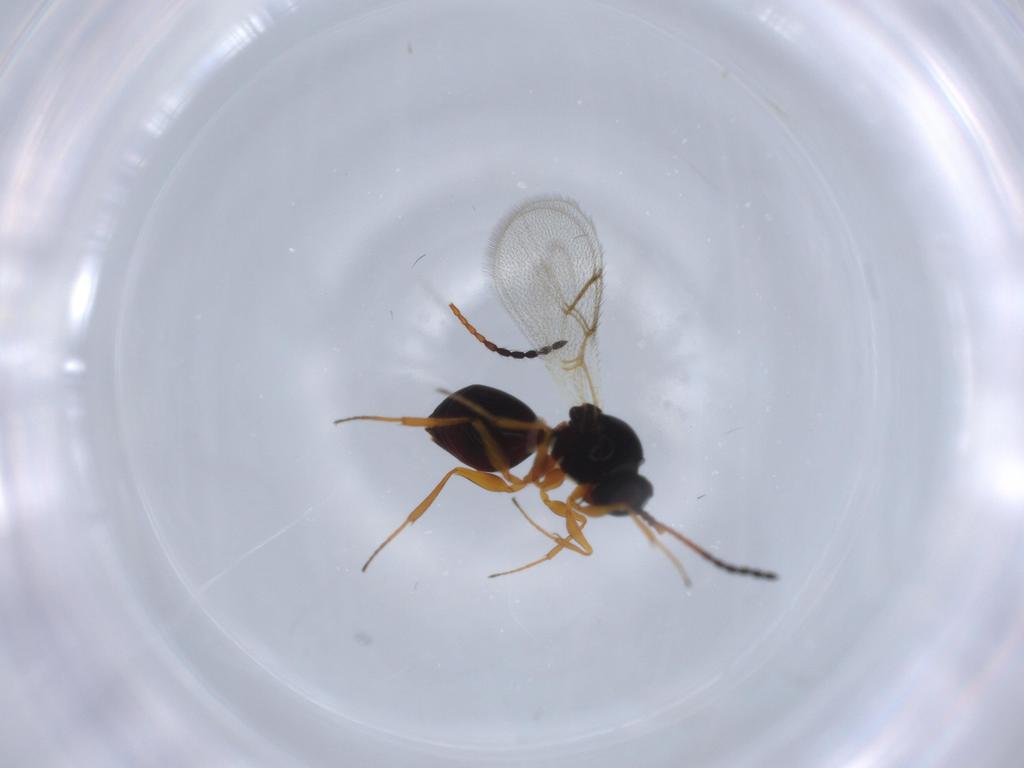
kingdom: Animalia
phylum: Arthropoda
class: Insecta
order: Hymenoptera
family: Figitidae
